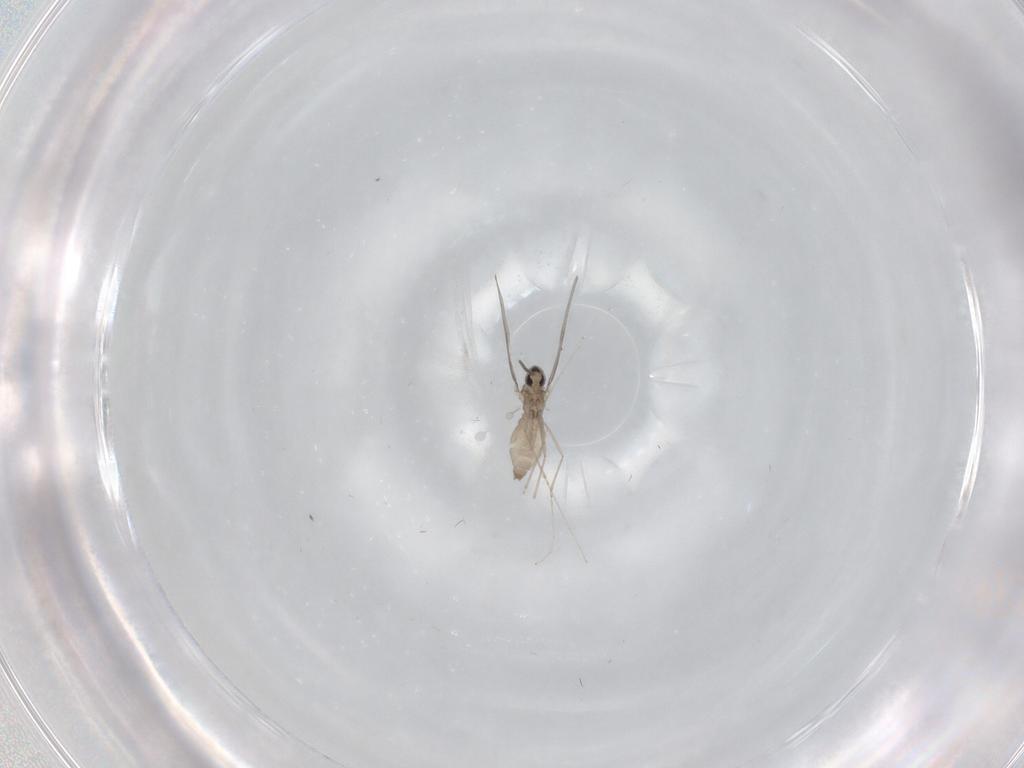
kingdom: Animalia
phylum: Arthropoda
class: Insecta
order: Diptera
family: Cecidomyiidae
